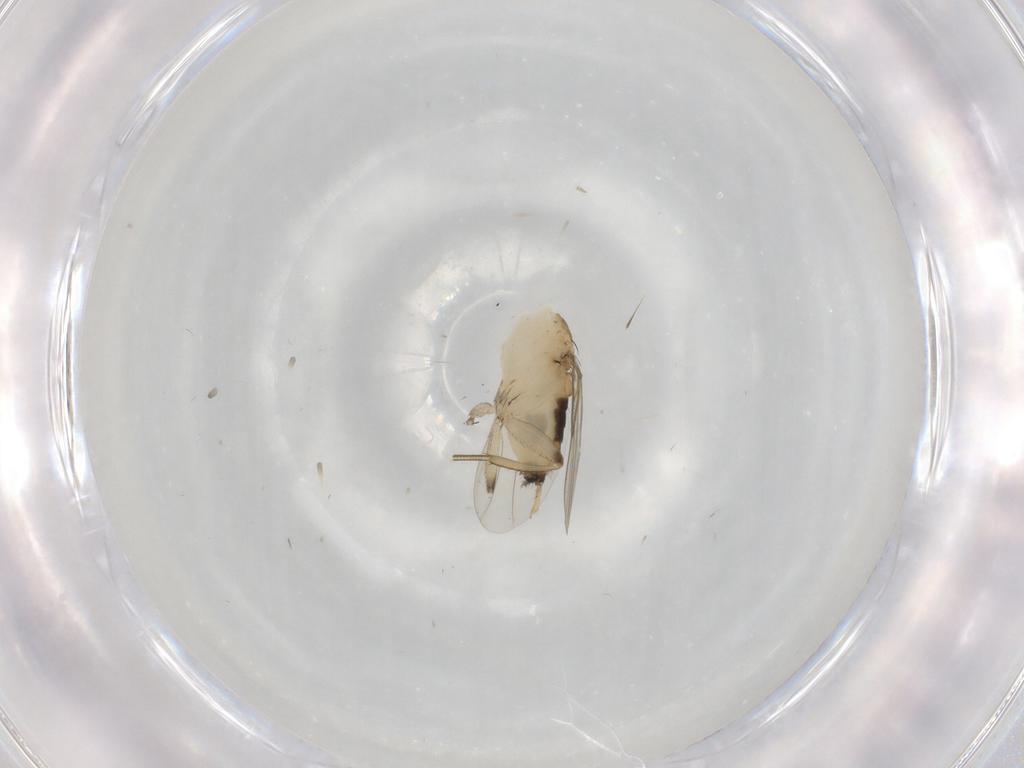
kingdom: Animalia
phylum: Arthropoda
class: Insecta
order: Diptera
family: Phoridae
